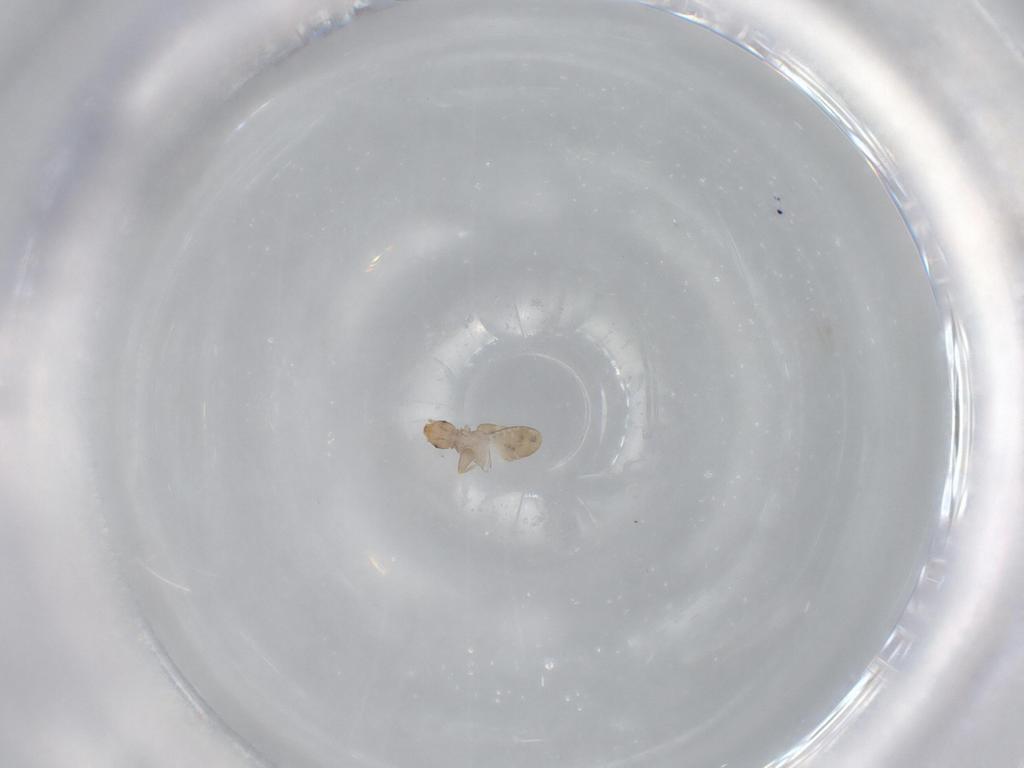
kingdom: Animalia
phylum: Arthropoda
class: Insecta
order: Psocodea
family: Liposcelididae
